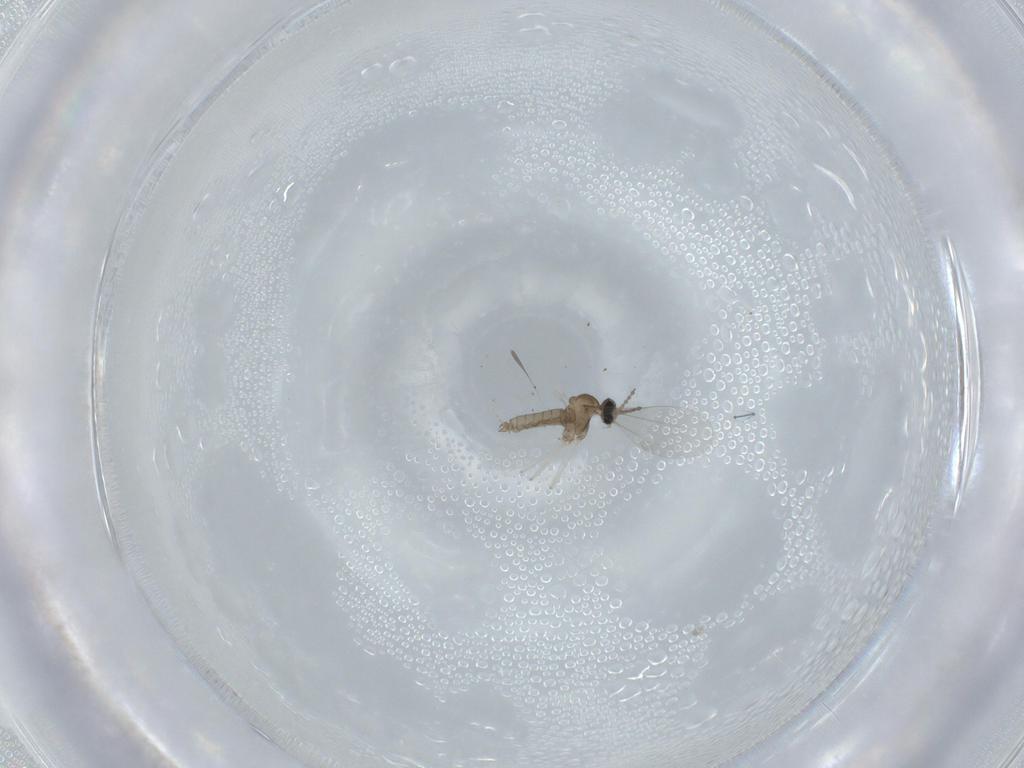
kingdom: Animalia
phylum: Arthropoda
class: Insecta
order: Diptera
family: Cecidomyiidae
